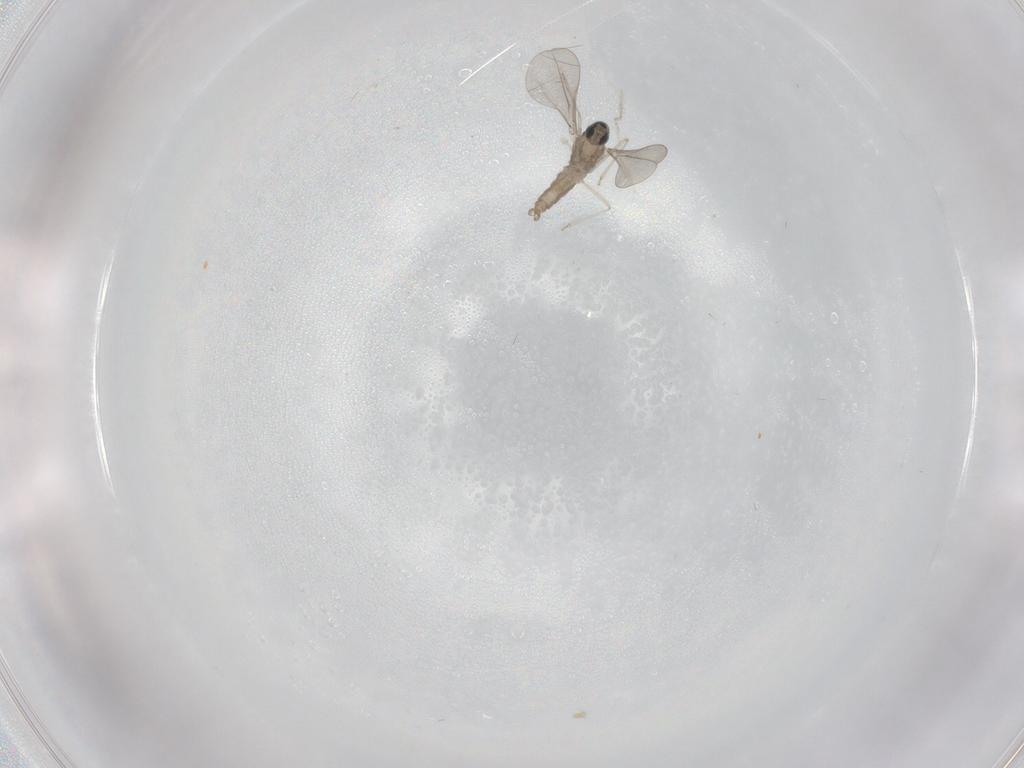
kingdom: Animalia
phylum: Arthropoda
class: Insecta
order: Diptera
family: Cecidomyiidae
